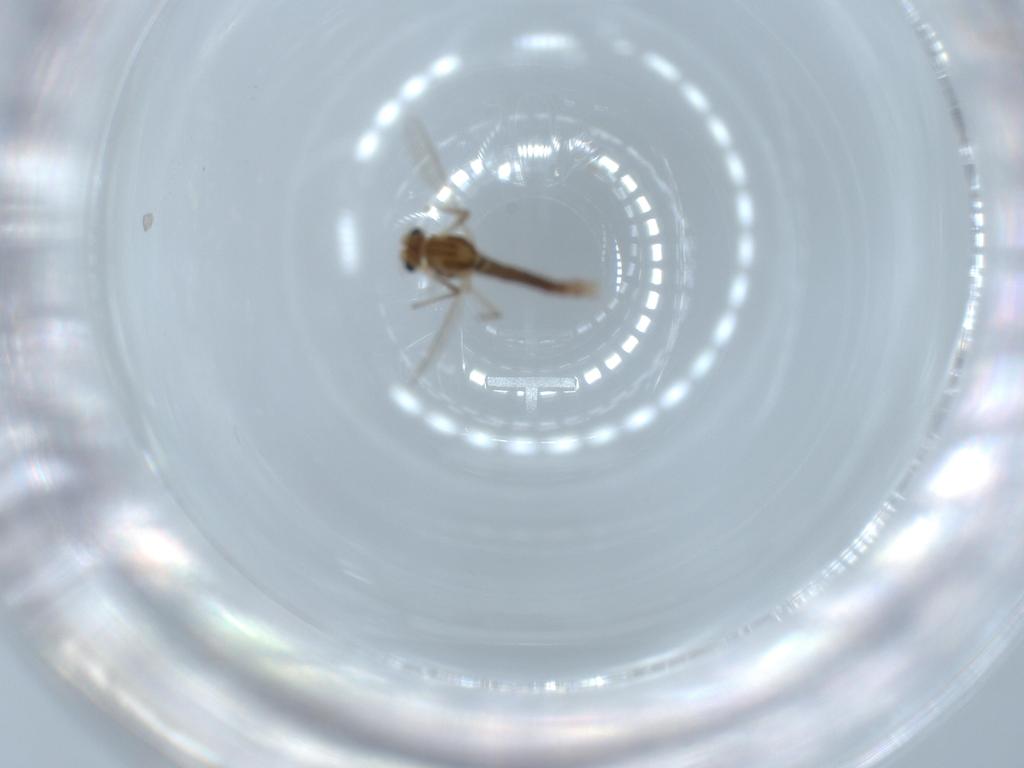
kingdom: Animalia
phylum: Arthropoda
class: Insecta
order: Diptera
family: Chironomidae
